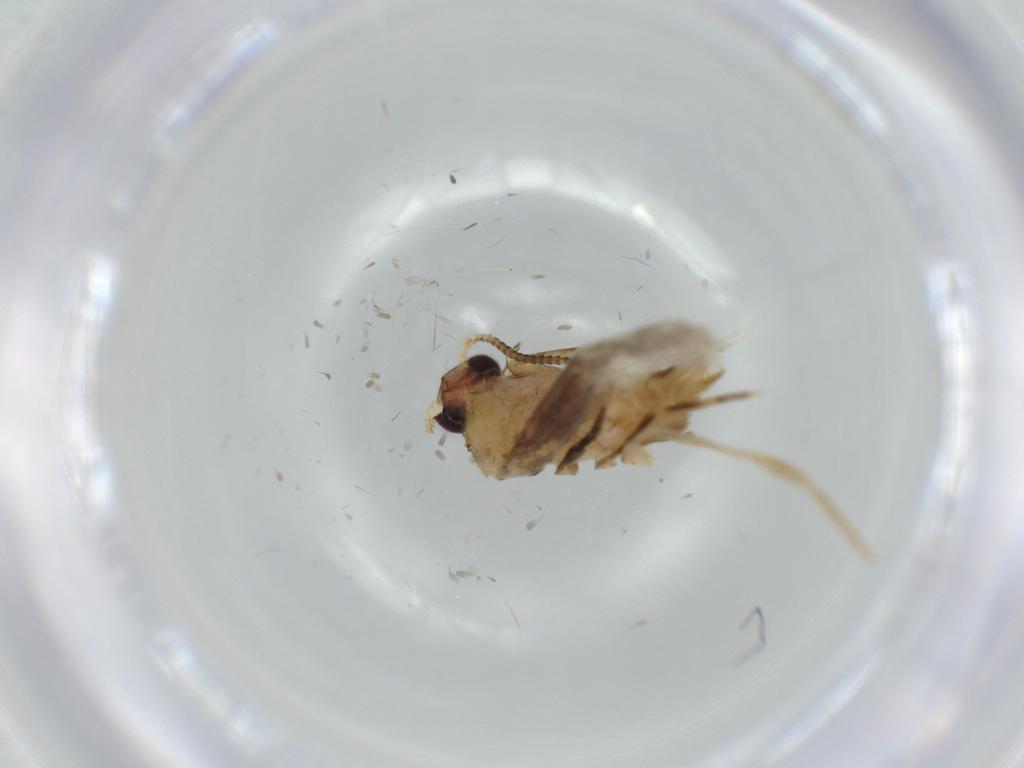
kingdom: Animalia
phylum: Arthropoda
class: Insecta
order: Lepidoptera
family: Tineidae
